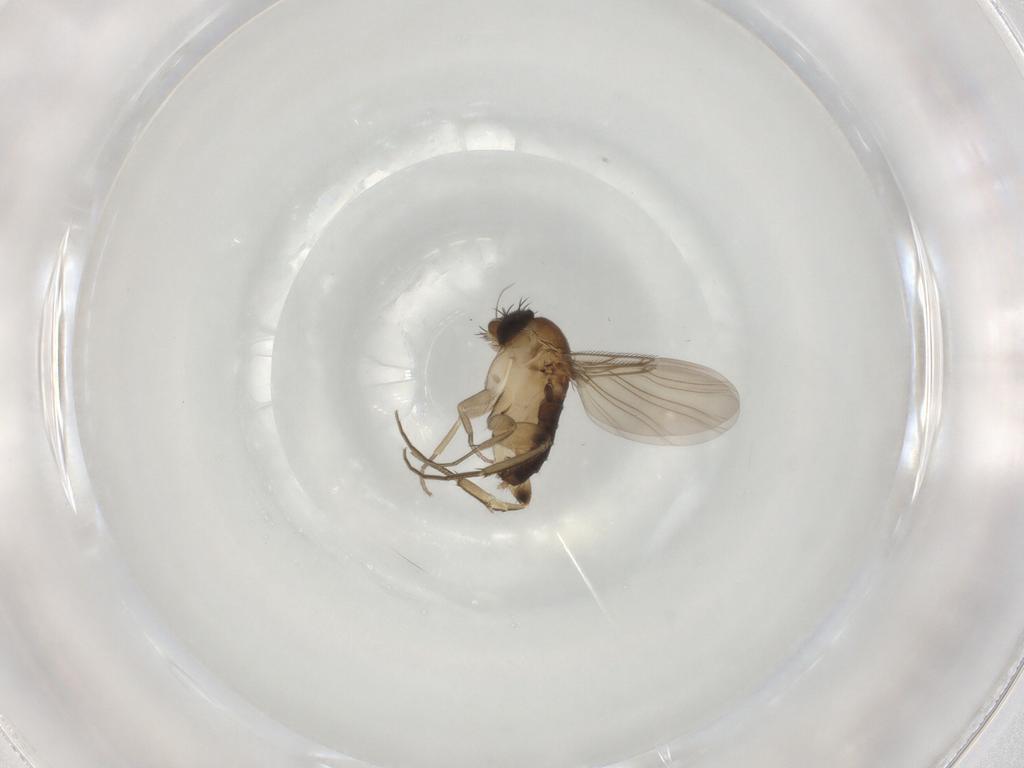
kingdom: Animalia
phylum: Arthropoda
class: Insecta
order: Diptera
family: Phoridae
